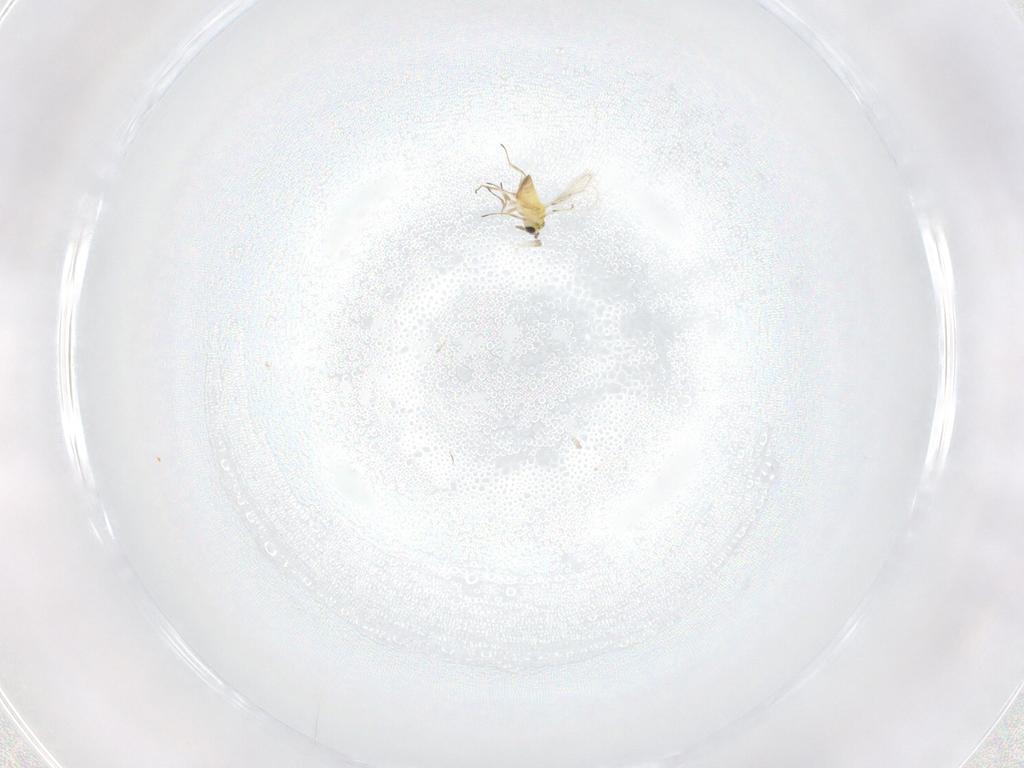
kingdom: Animalia
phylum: Arthropoda
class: Insecta
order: Hymenoptera
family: Trichogrammatidae
